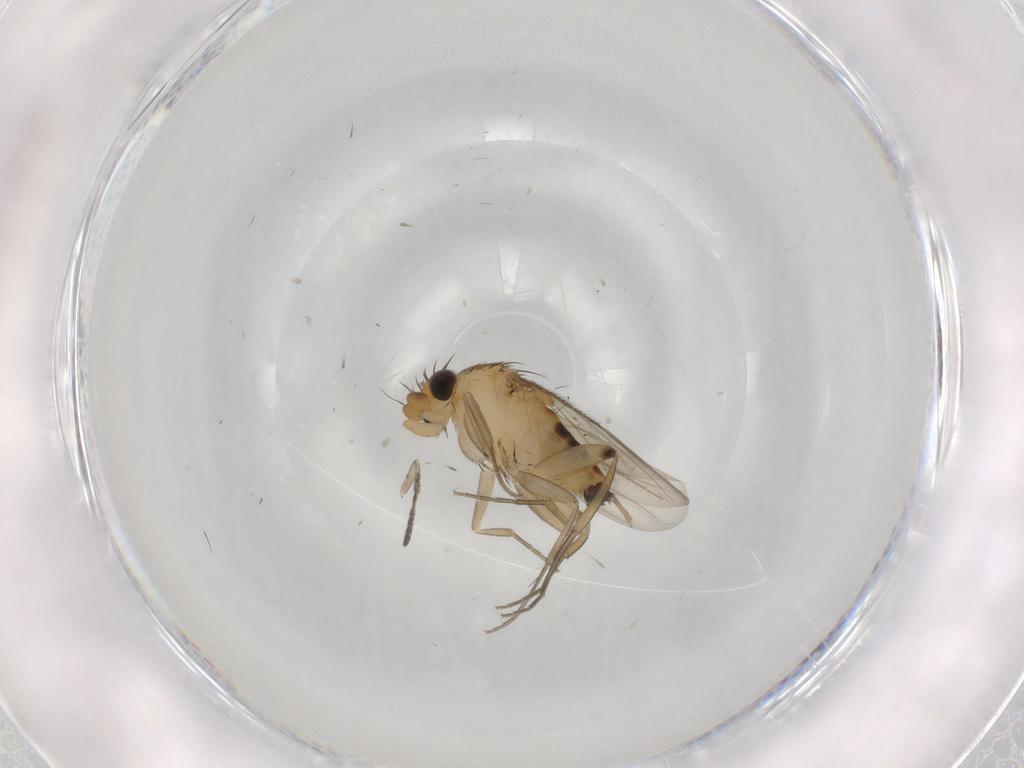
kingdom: Animalia
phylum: Arthropoda
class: Insecta
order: Diptera
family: Phoridae
